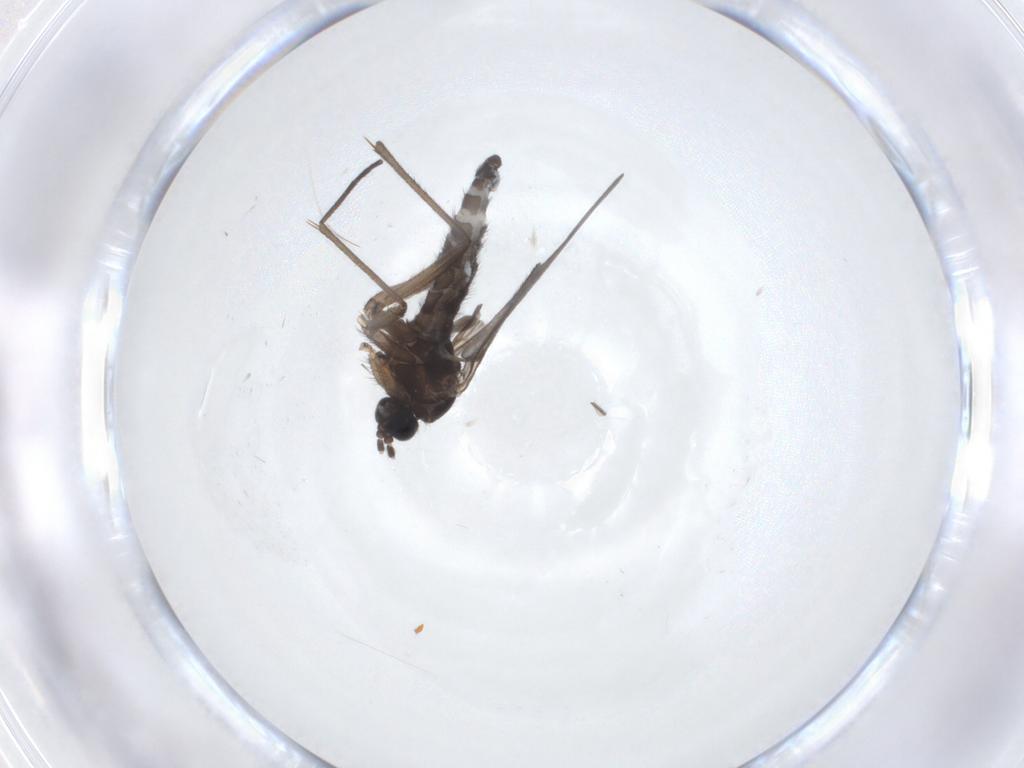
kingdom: Animalia
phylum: Arthropoda
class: Insecta
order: Diptera
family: Sciaridae
